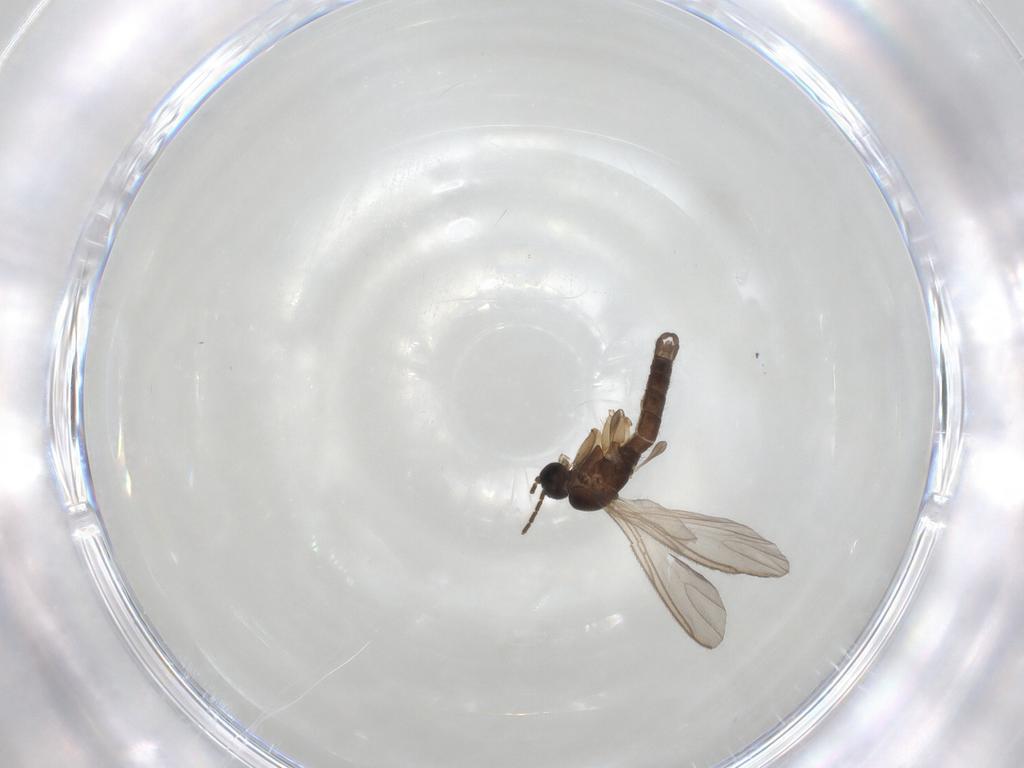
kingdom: Animalia
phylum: Arthropoda
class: Insecta
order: Diptera
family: Sciaridae
